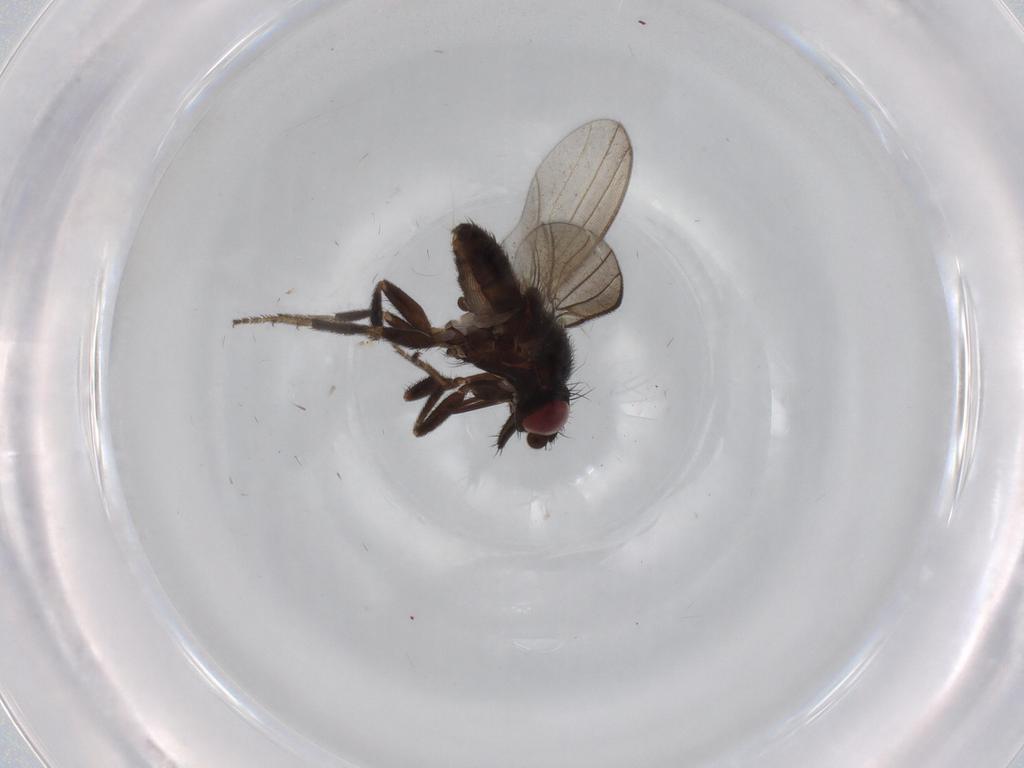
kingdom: Animalia
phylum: Arthropoda
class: Insecta
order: Diptera
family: Milichiidae
